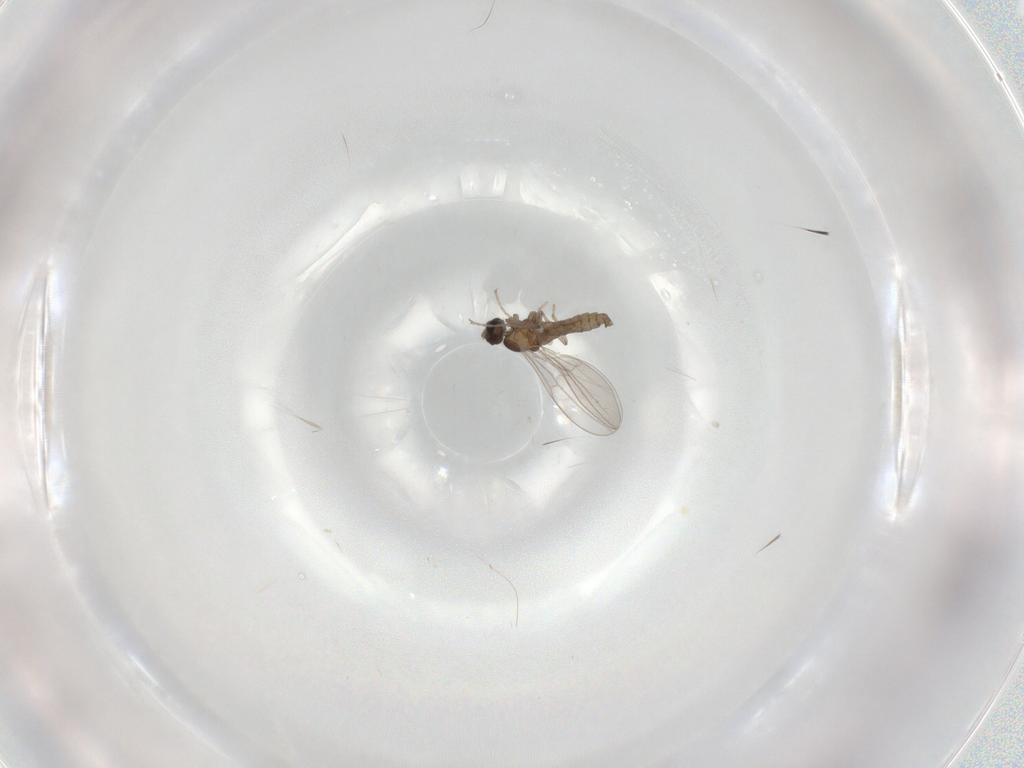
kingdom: Animalia
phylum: Arthropoda
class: Insecta
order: Diptera
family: Cecidomyiidae
